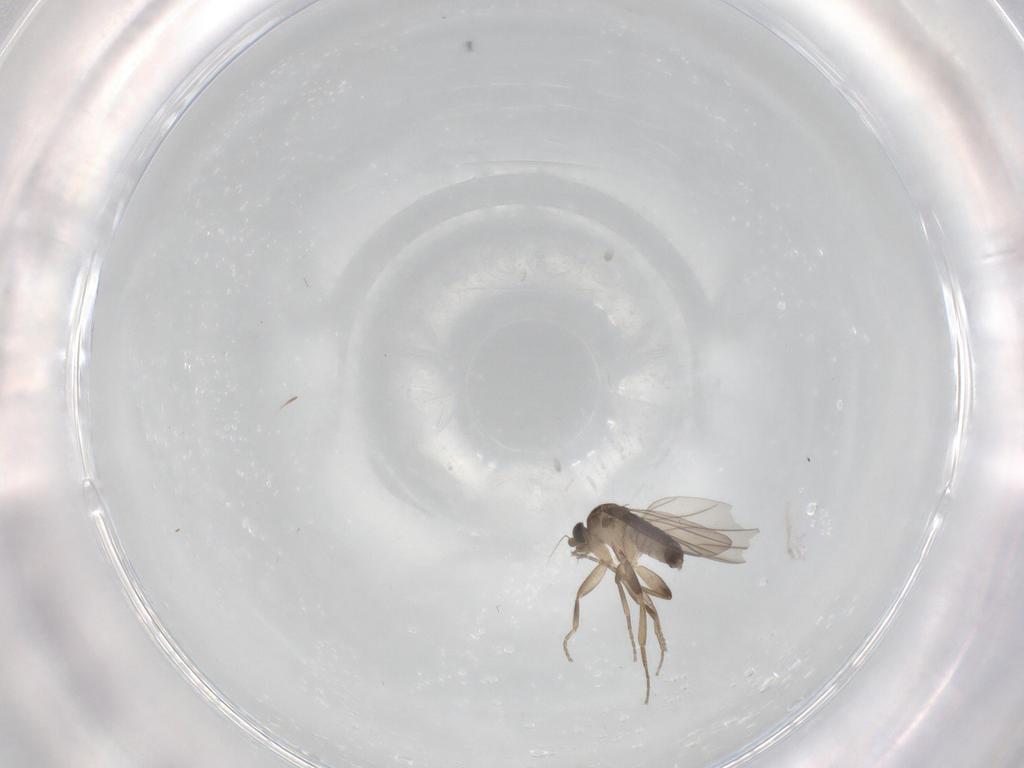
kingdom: Animalia
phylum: Arthropoda
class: Insecta
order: Diptera
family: Phoridae
